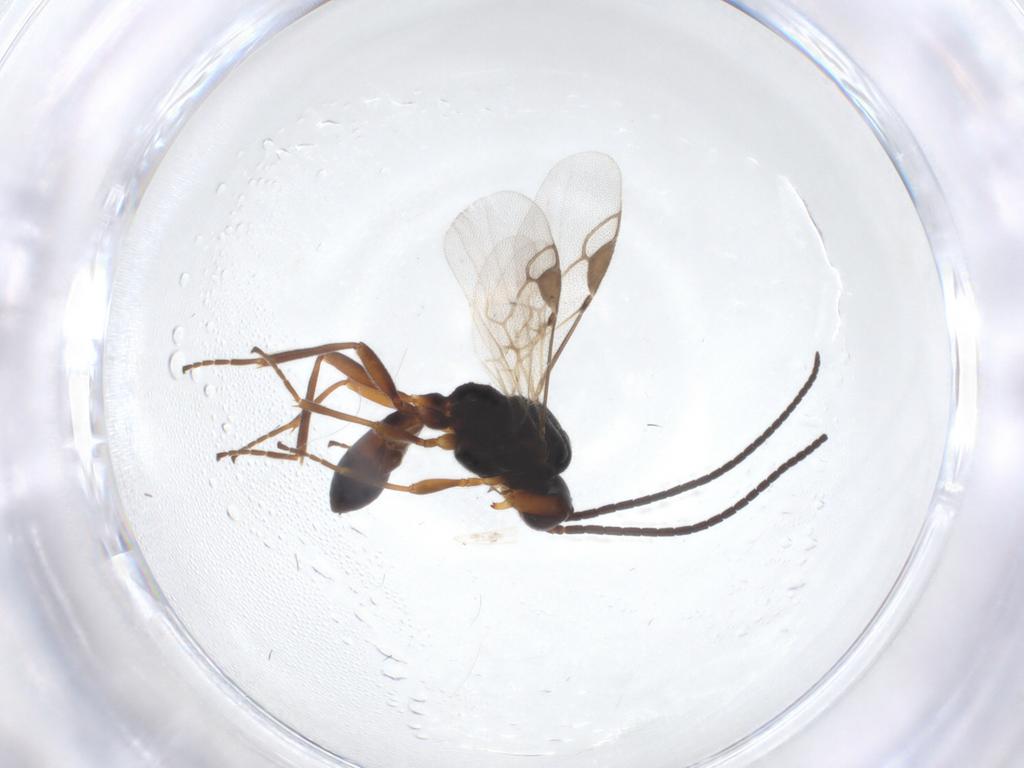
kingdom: Animalia
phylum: Arthropoda
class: Insecta
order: Hymenoptera
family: Braconidae
